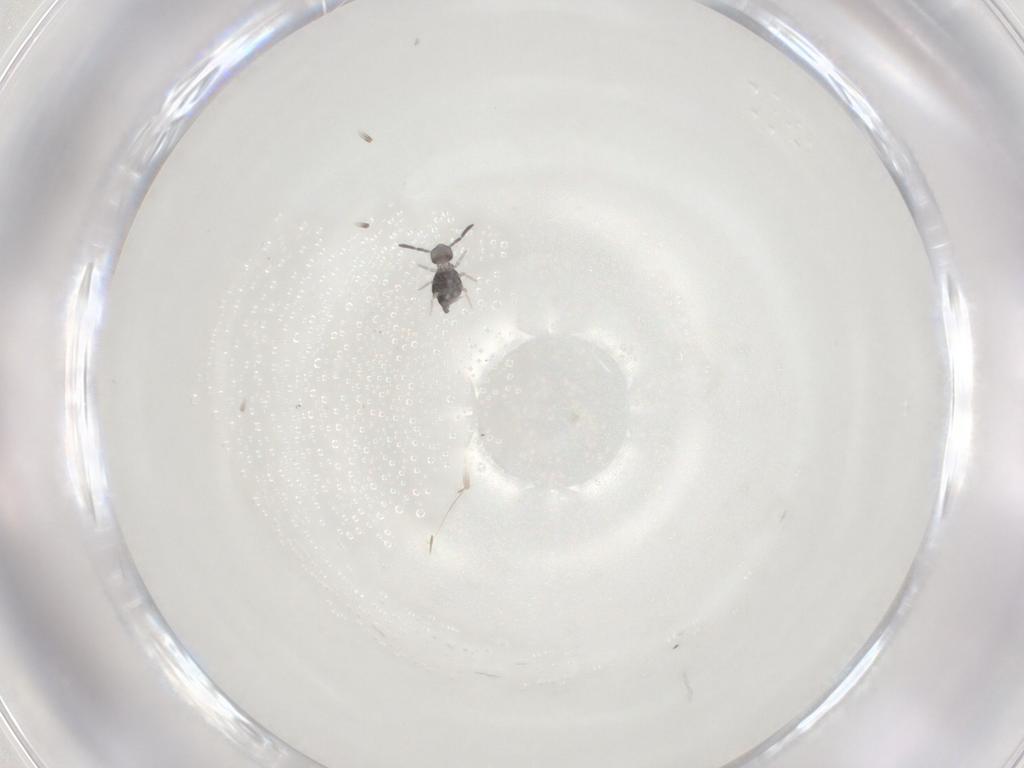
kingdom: Animalia
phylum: Arthropoda
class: Collembola
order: Symphypleona
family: Katiannidae
